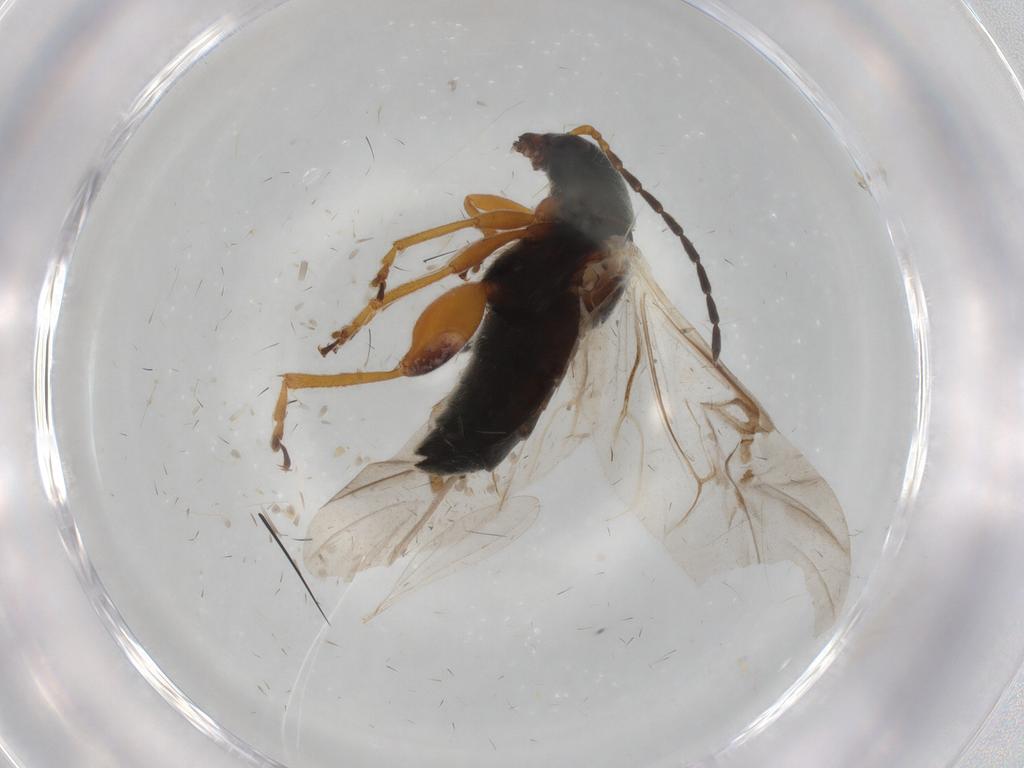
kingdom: Animalia
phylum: Arthropoda
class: Insecta
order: Coleoptera
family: Chrysomelidae
